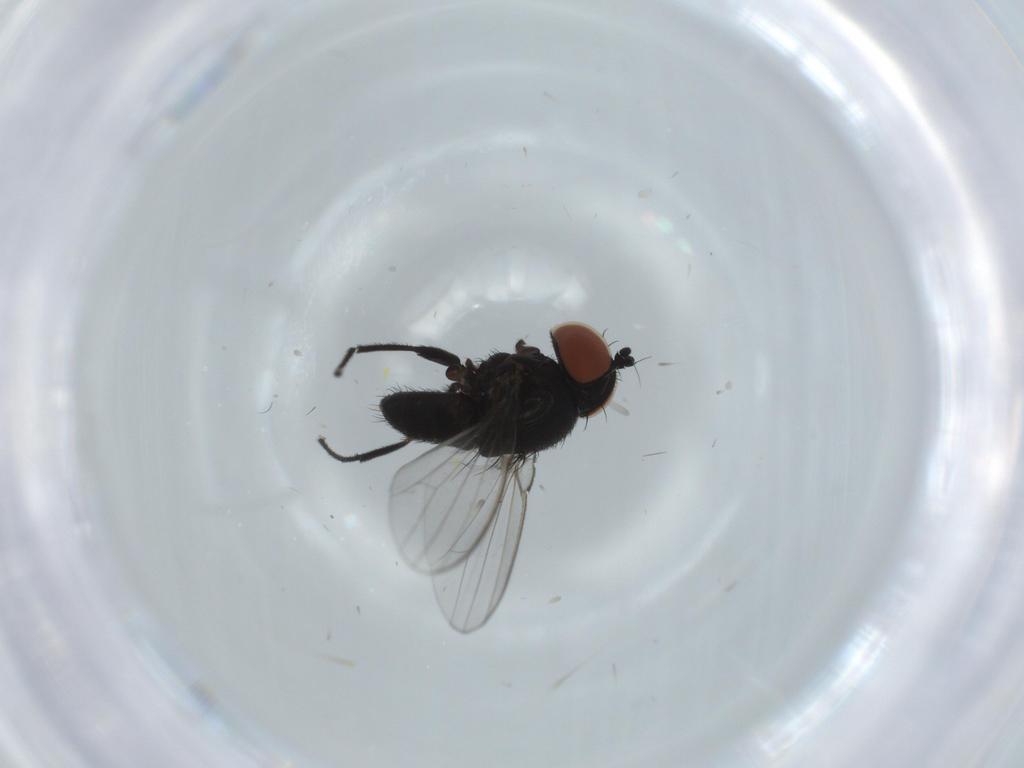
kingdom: Animalia
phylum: Arthropoda
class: Insecta
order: Diptera
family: Milichiidae
